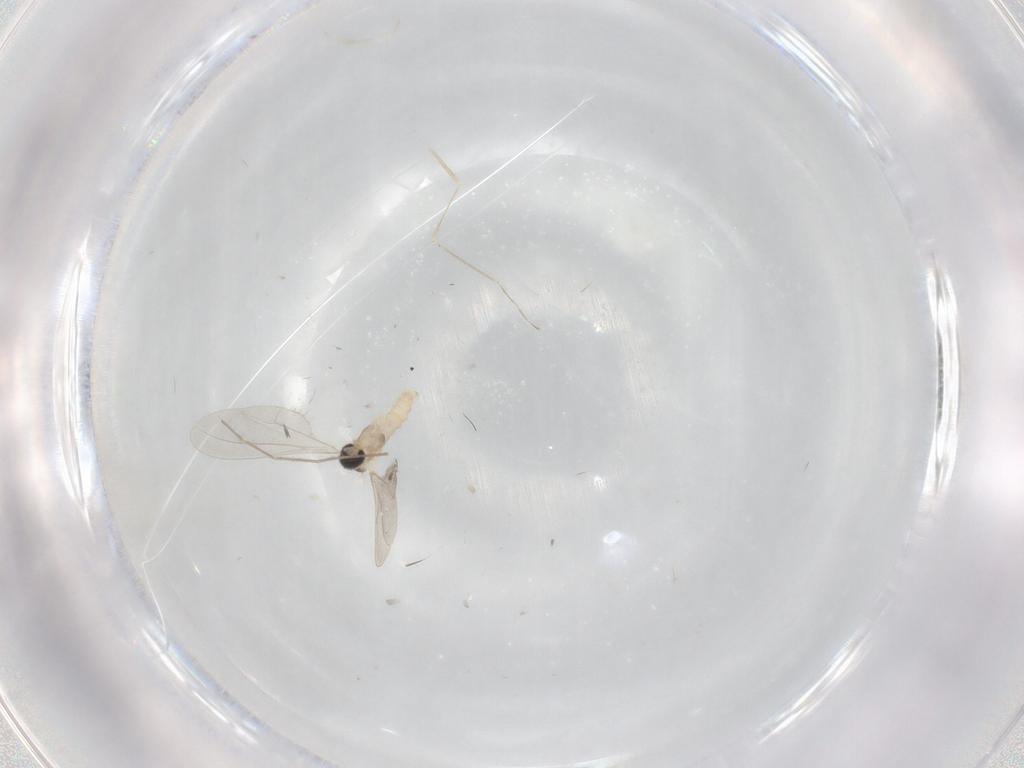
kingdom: Animalia
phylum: Arthropoda
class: Insecta
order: Diptera
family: Cecidomyiidae
